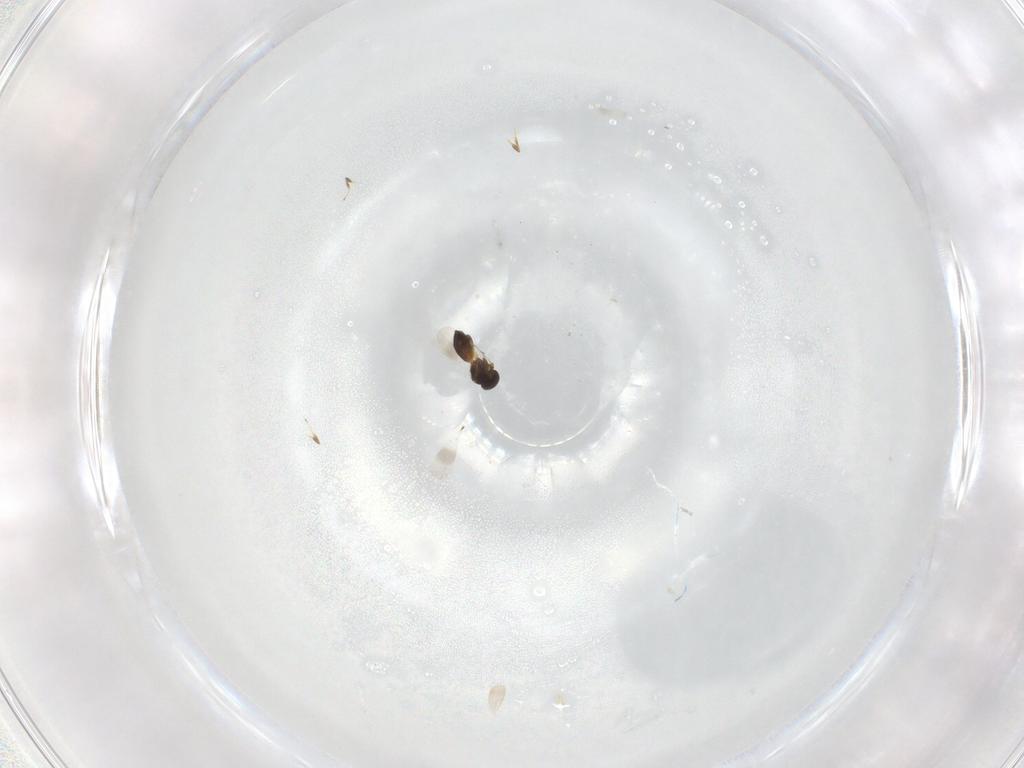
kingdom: Animalia
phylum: Arthropoda
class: Insecta
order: Hymenoptera
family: Platygastridae
